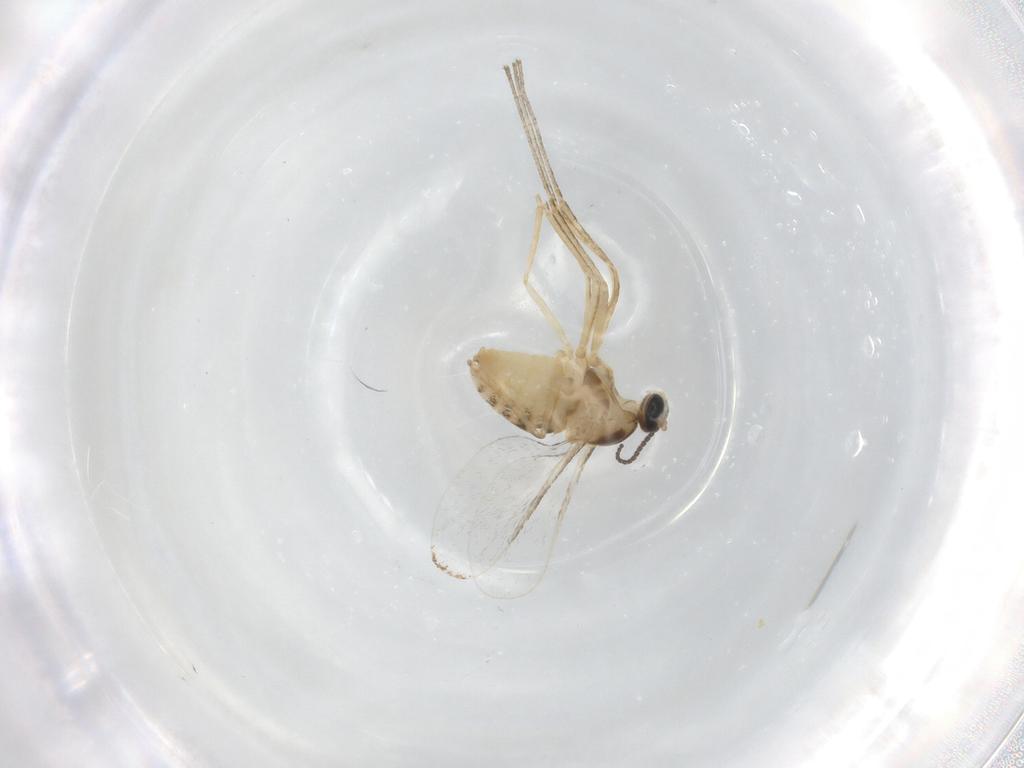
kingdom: Animalia
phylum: Arthropoda
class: Insecta
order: Diptera
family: Cecidomyiidae
